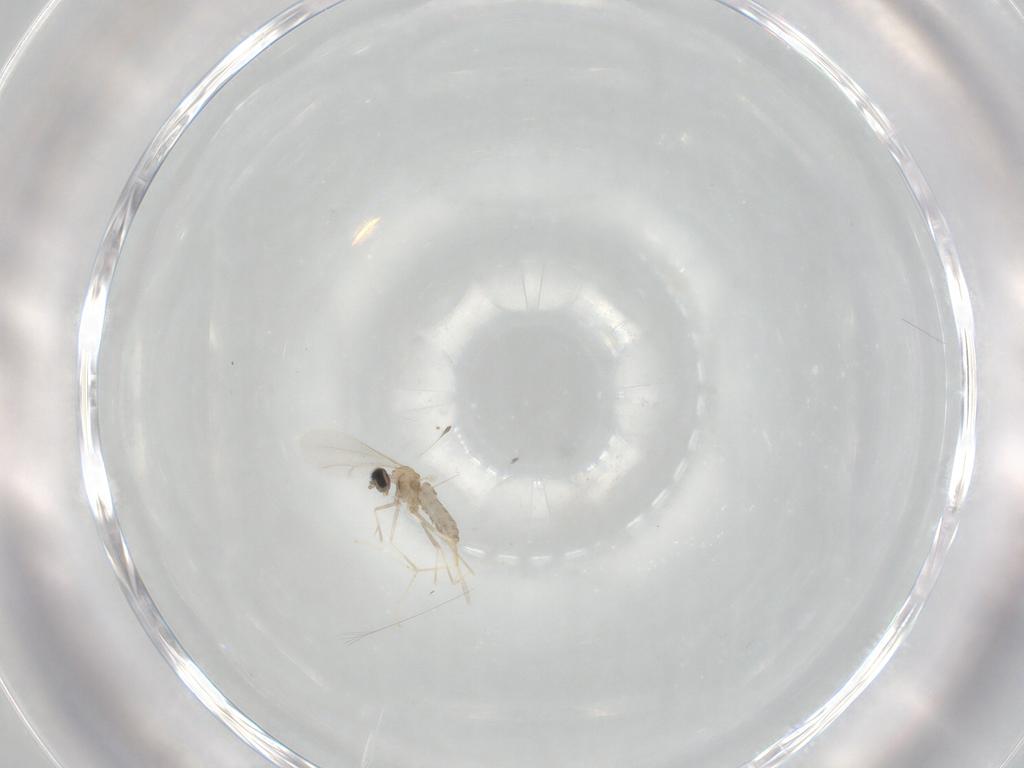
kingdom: Animalia
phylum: Arthropoda
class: Insecta
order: Diptera
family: Cecidomyiidae
